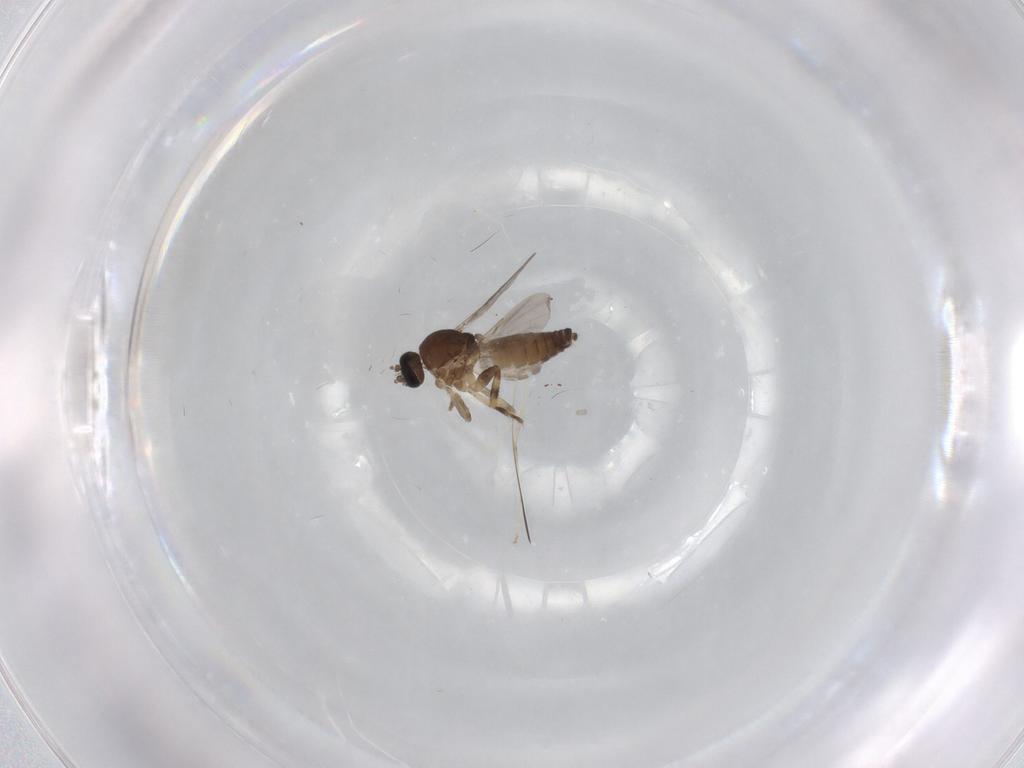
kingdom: Animalia
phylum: Arthropoda
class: Insecta
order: Diptera
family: Ceratopogonidae
